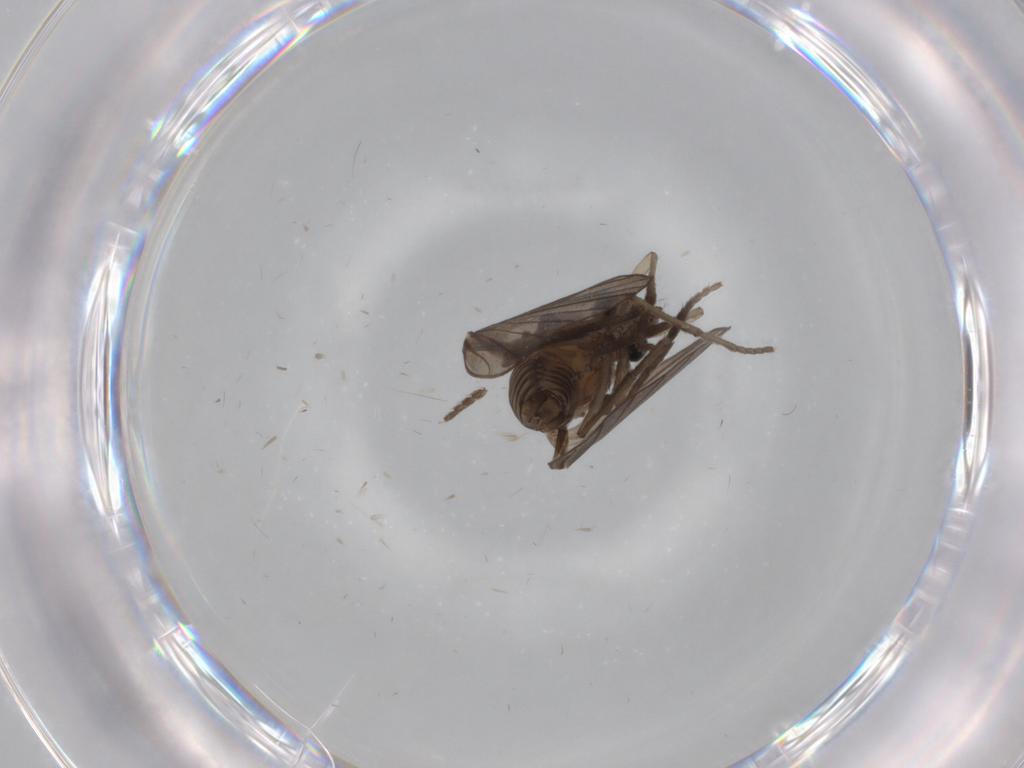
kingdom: Animalia
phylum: Arthropoda
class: Insecta
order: Diptera
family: Psychodidae
